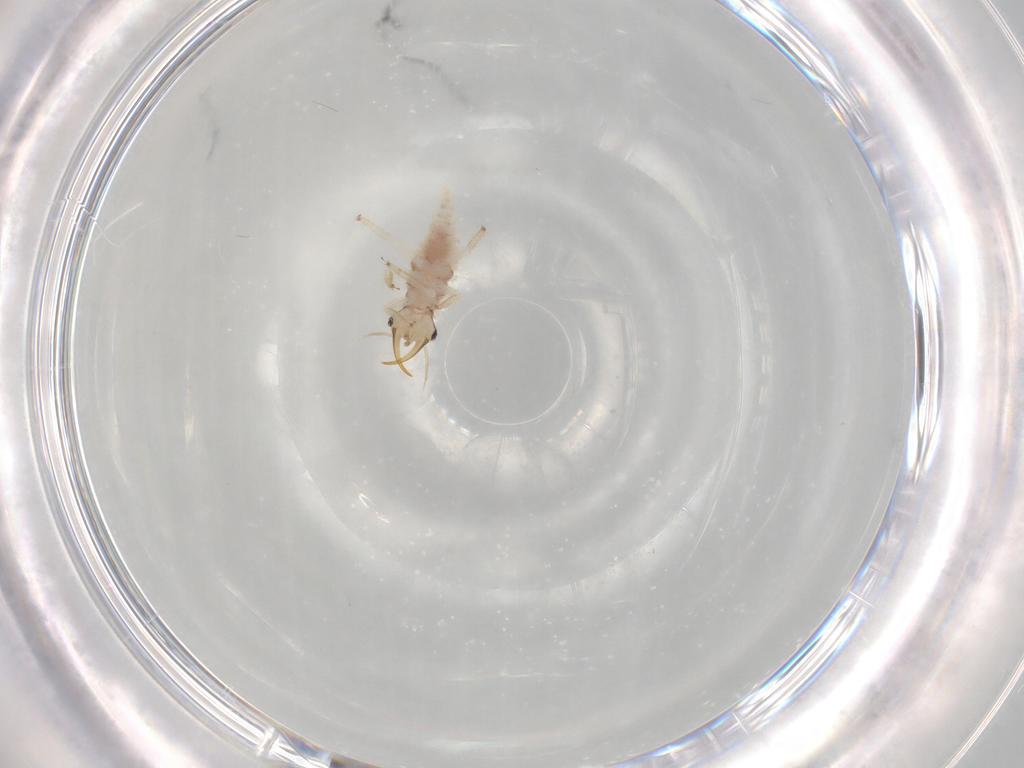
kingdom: Animalia
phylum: Arthropoda
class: Insecta
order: Neuroptera
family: Chrysopidae
